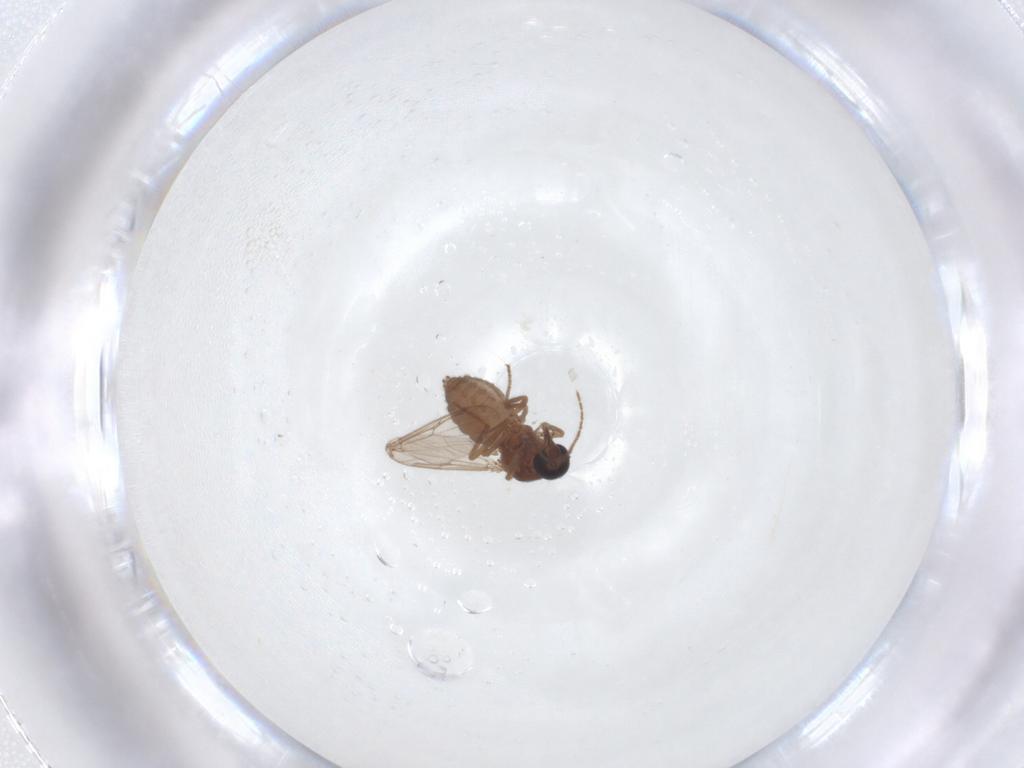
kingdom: Animalia
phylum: Arthropoda
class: Insecta
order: Diptera
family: Ceratopogonidae
